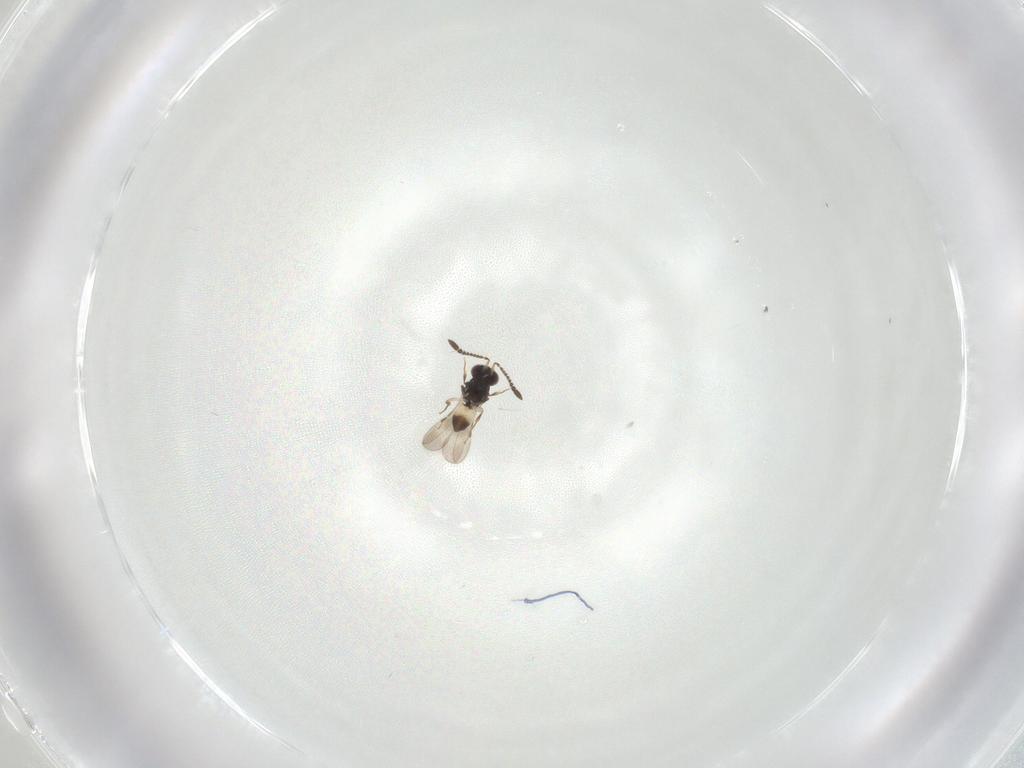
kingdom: Animalia
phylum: Arthropoda
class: Insecta
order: Hymenoptera
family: Formicidae
